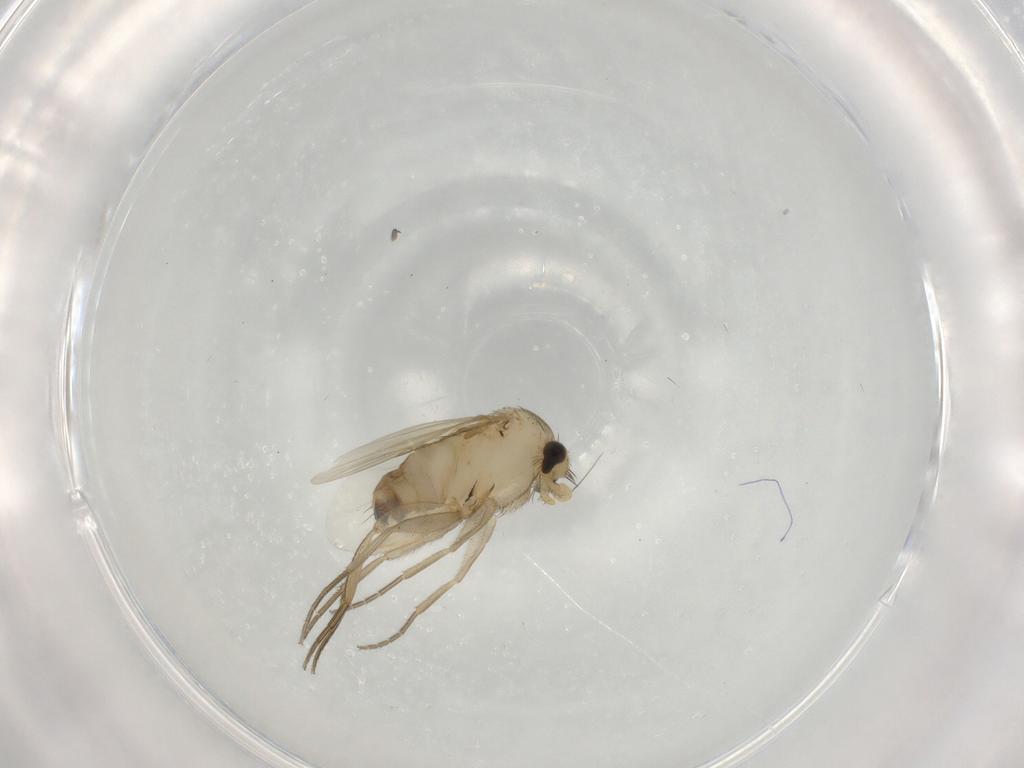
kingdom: Animalia
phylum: Arthropoda
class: Insecta
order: Diptera
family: Phoridae
